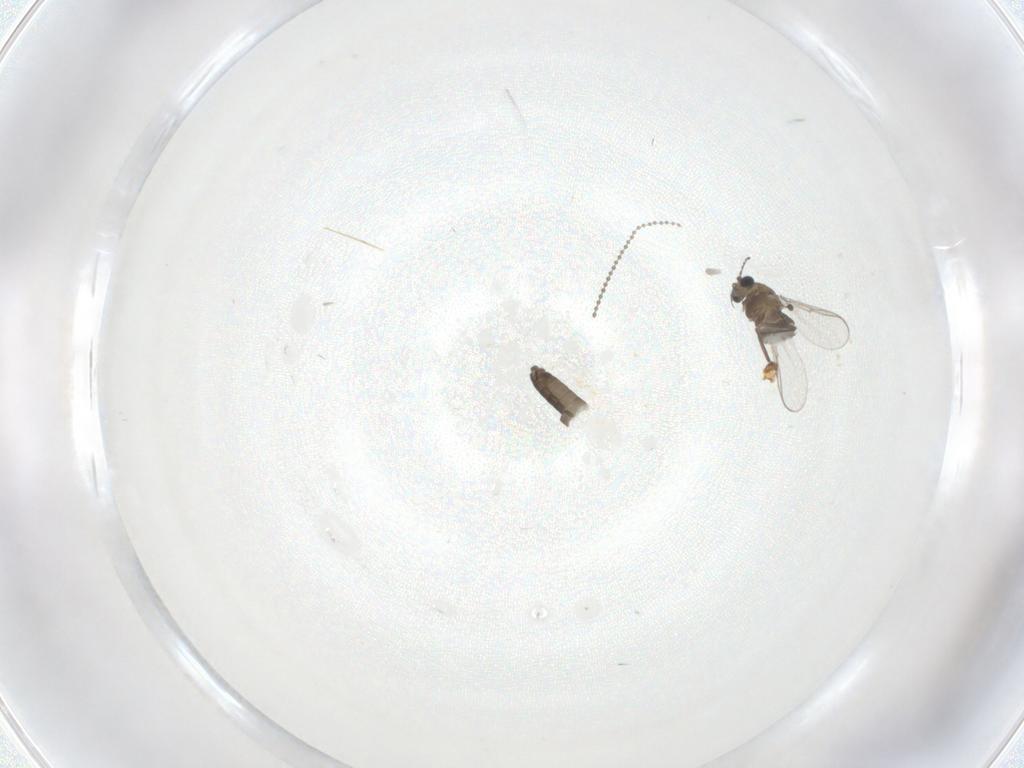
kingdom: Animalia
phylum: Arthropoda
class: Insecta
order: Diptera
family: Chironomidae
